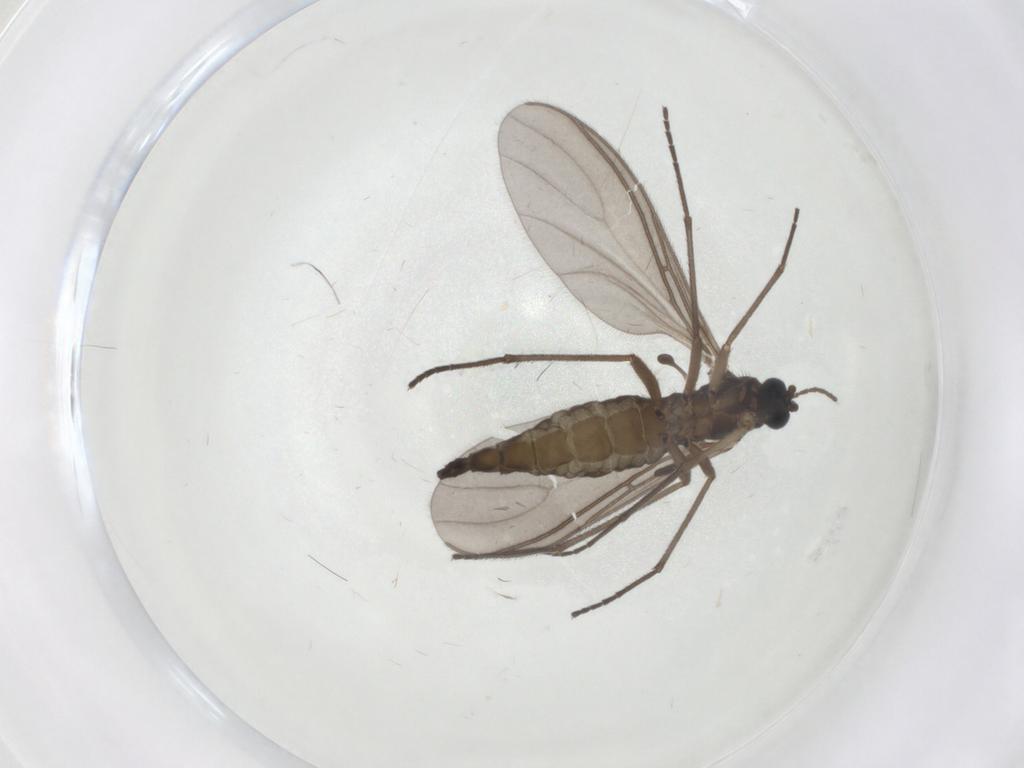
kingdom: Animalia
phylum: Arthropoda
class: Insecta
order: Diptera
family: Sciaridae
